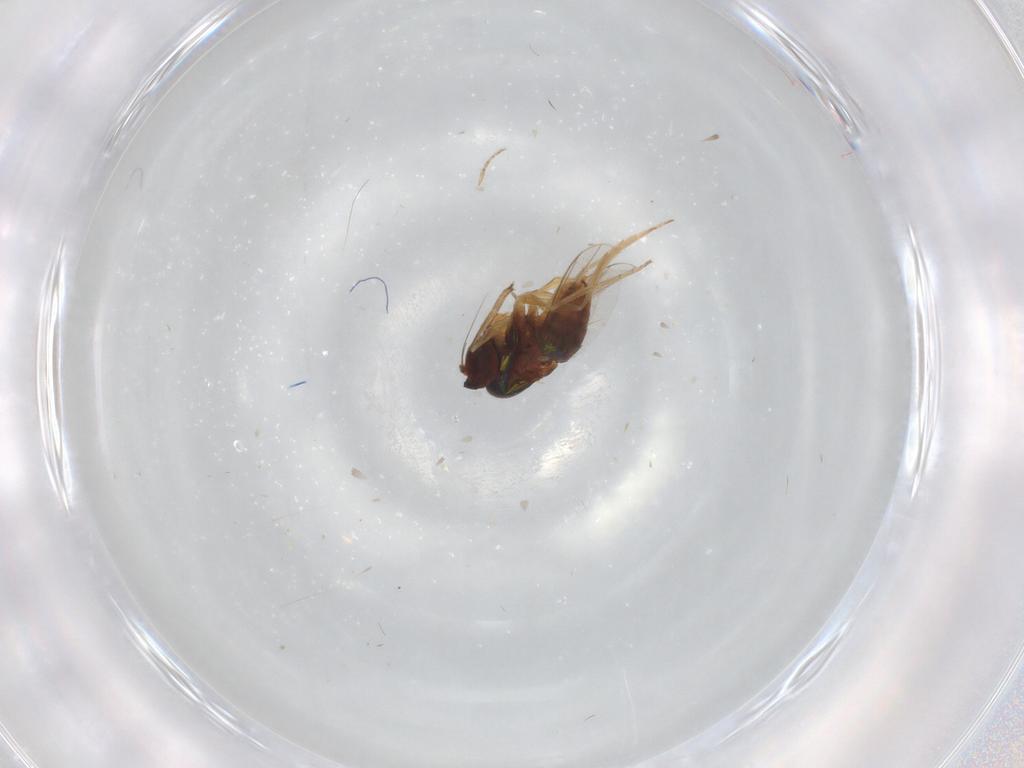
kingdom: Animalia
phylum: Arthropoda
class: Insecta
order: Diptera
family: Dolichopodidae
